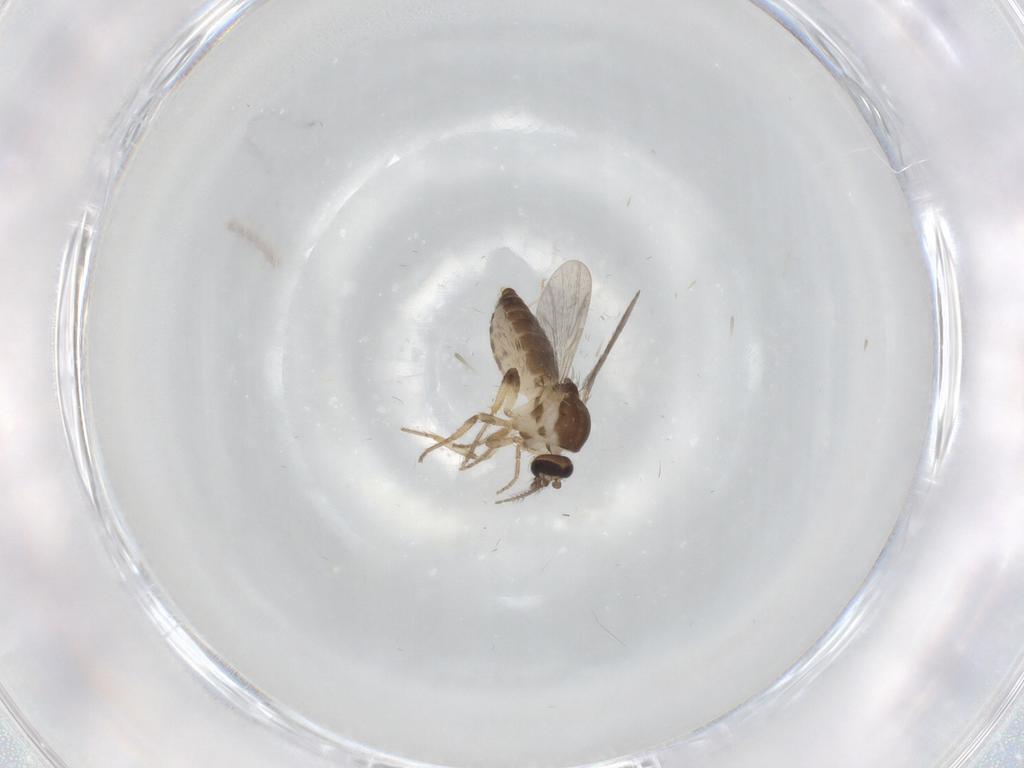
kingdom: Animalia
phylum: Arthropoda
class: Insecta
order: Diptera
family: Ceratopogonidae
